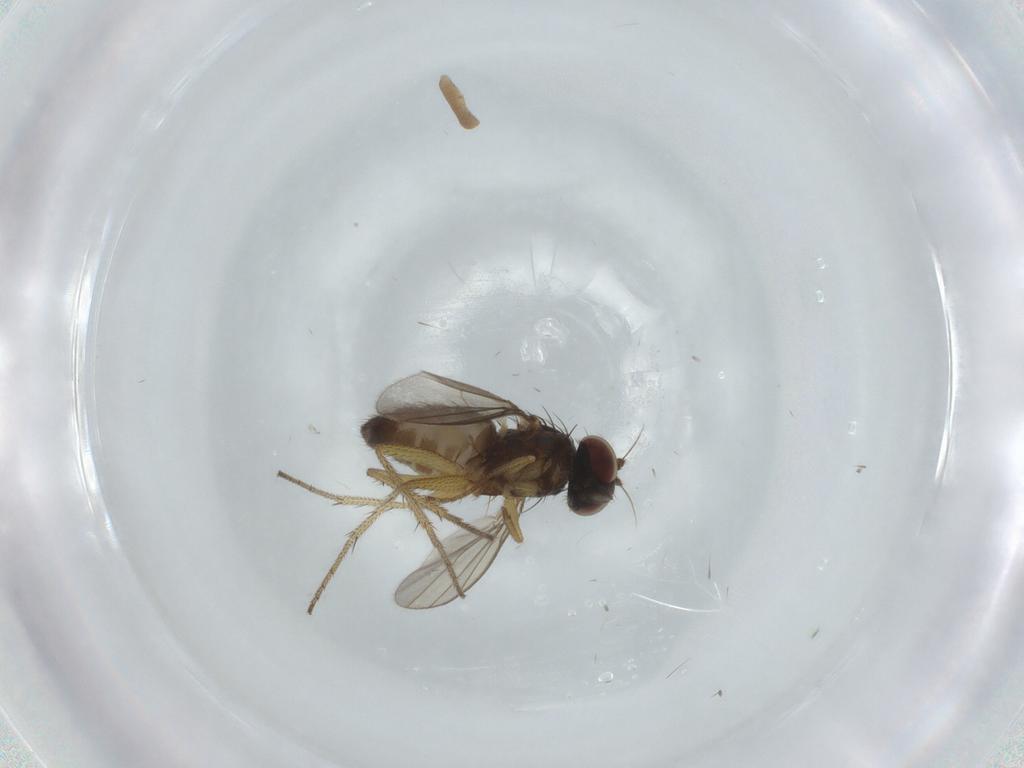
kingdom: Animalia
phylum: Arthropoda
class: Insecta
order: Diptera
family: Dolichopodidae
